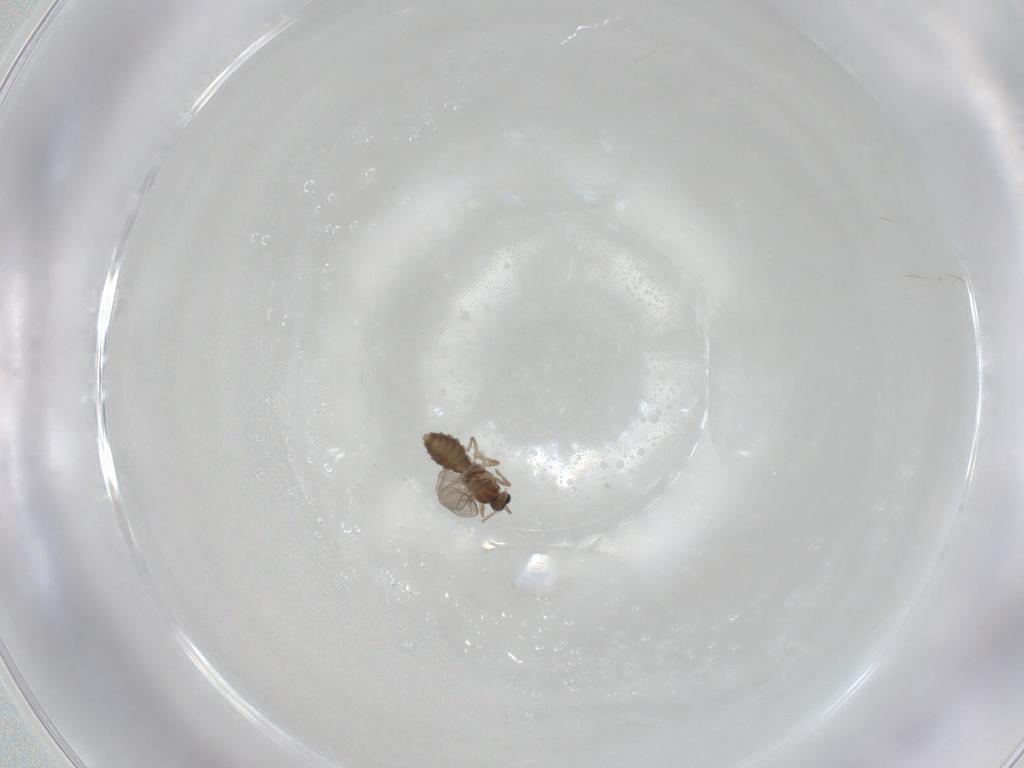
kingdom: Animalia
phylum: Arthropoda
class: Insecta
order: Diptera
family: Cecidomyiidae
